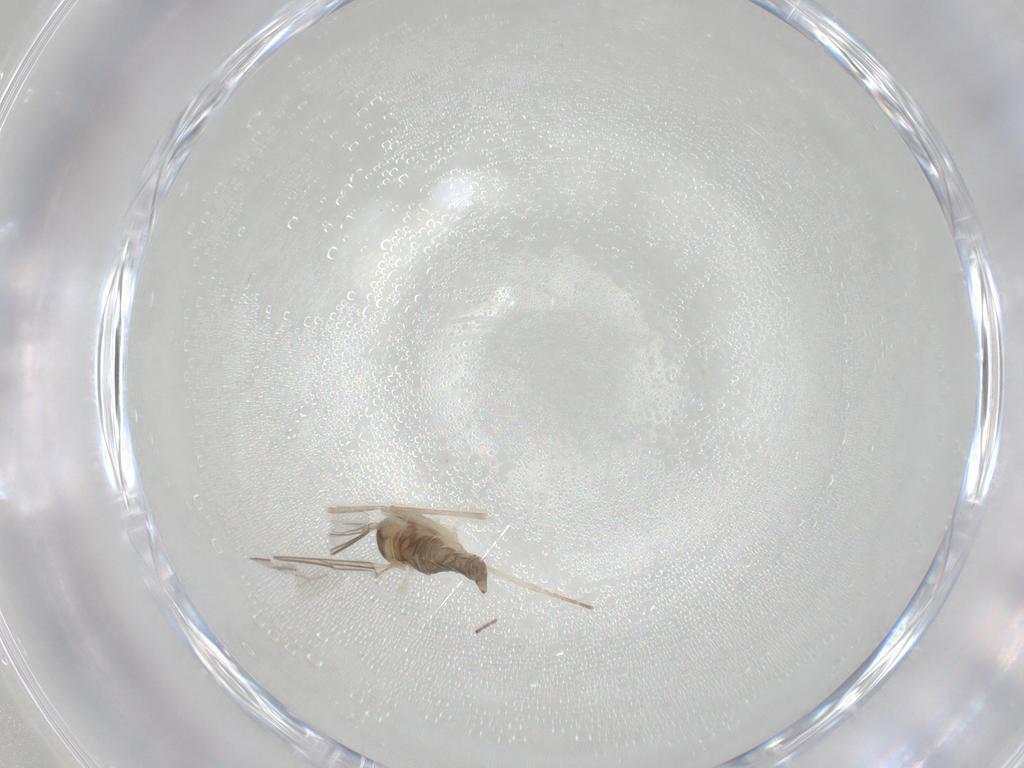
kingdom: Animalia
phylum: Arthropoda
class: Insecta
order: Diptera
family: Cecidomyiidae
